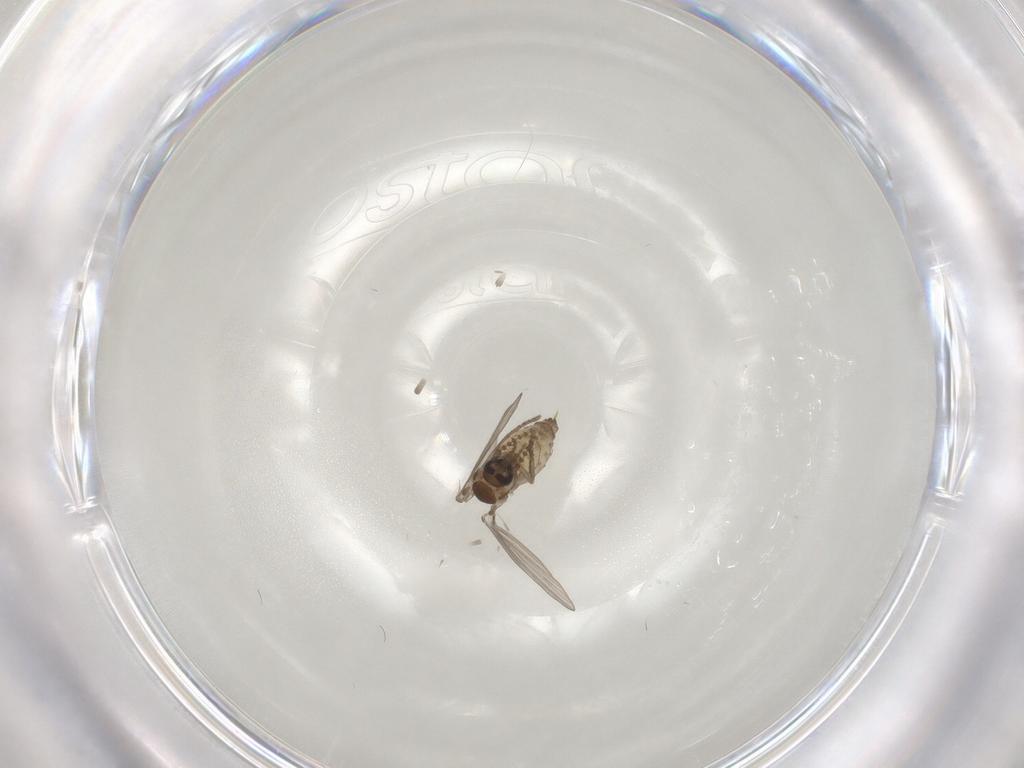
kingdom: Animalia
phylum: Arthropoda
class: Insecta
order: Diptera
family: Psychodidae
